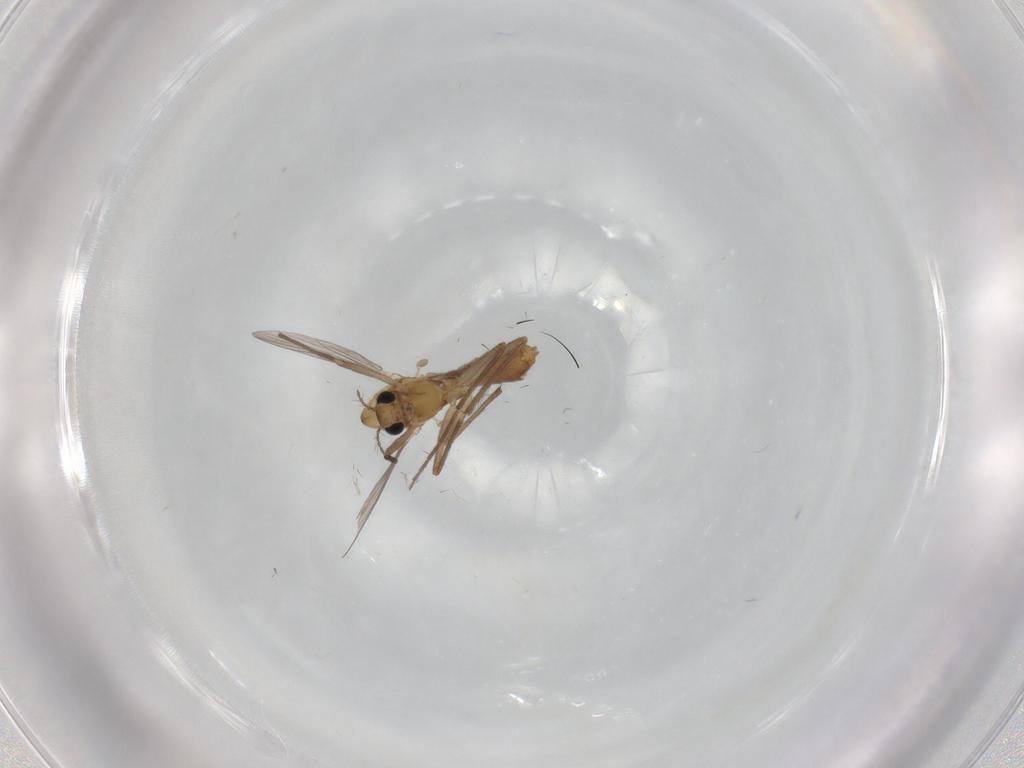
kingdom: Animalia
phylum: Arthropoda
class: Insecta
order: Diptera
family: Chironomidae
